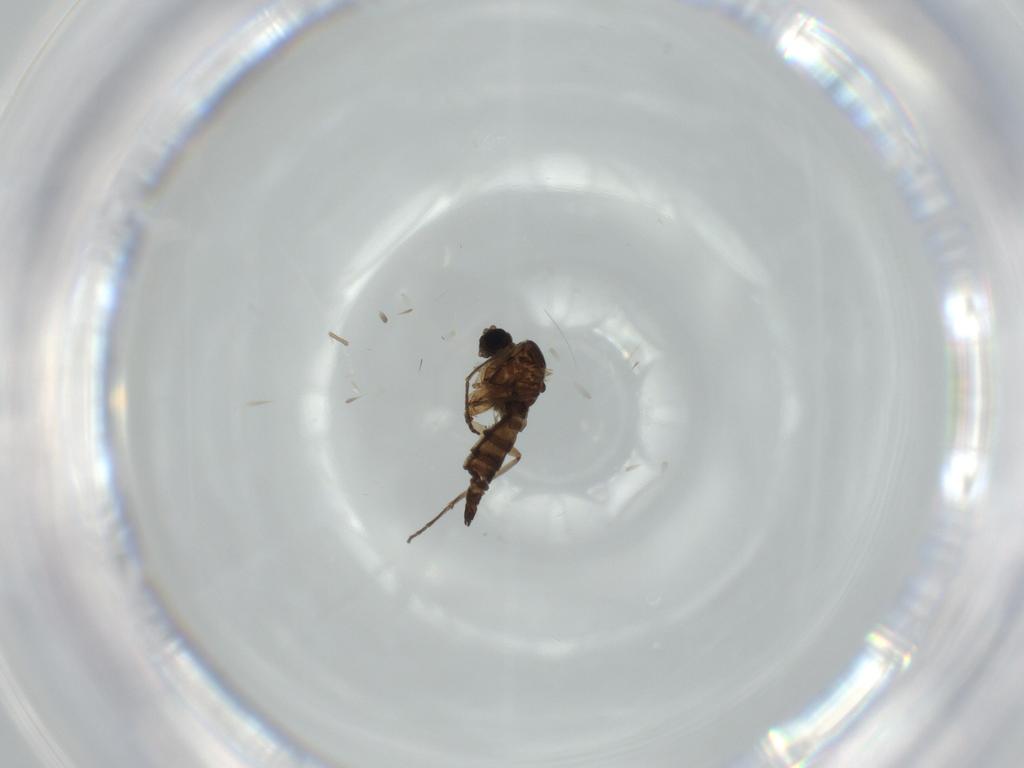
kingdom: Animalia
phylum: Arthropoda
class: Insecta
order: Diptera
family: Sciaridae
